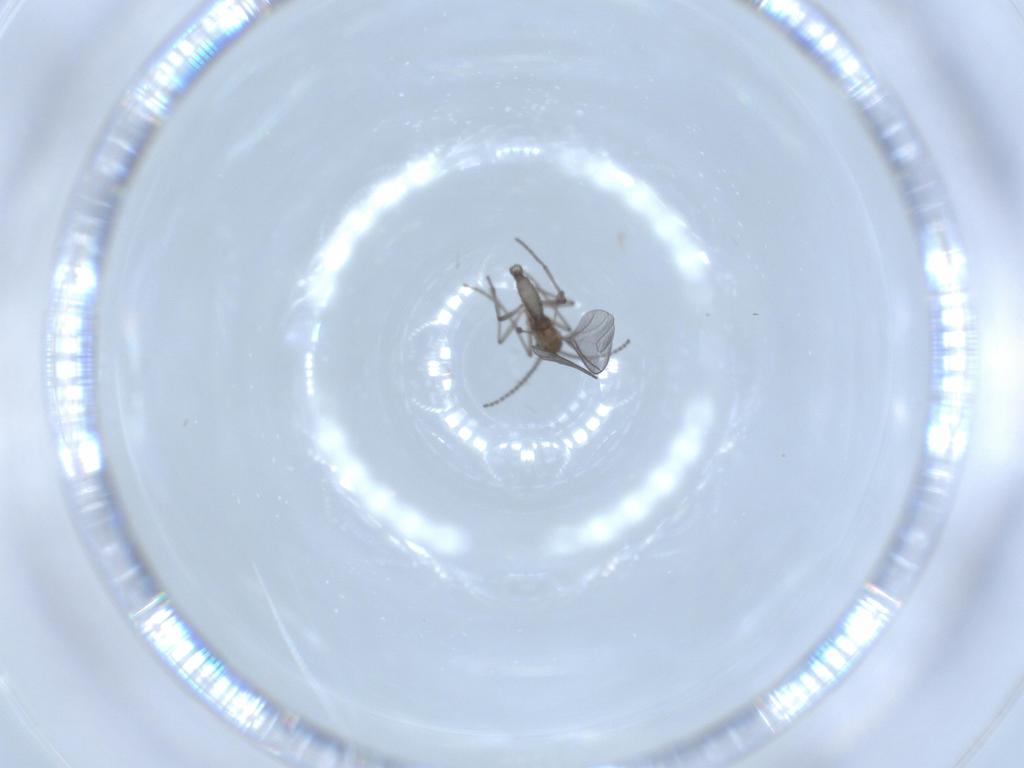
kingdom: Animalia
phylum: Arthropoda
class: Insecta
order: Diptera
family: Sciaridae
